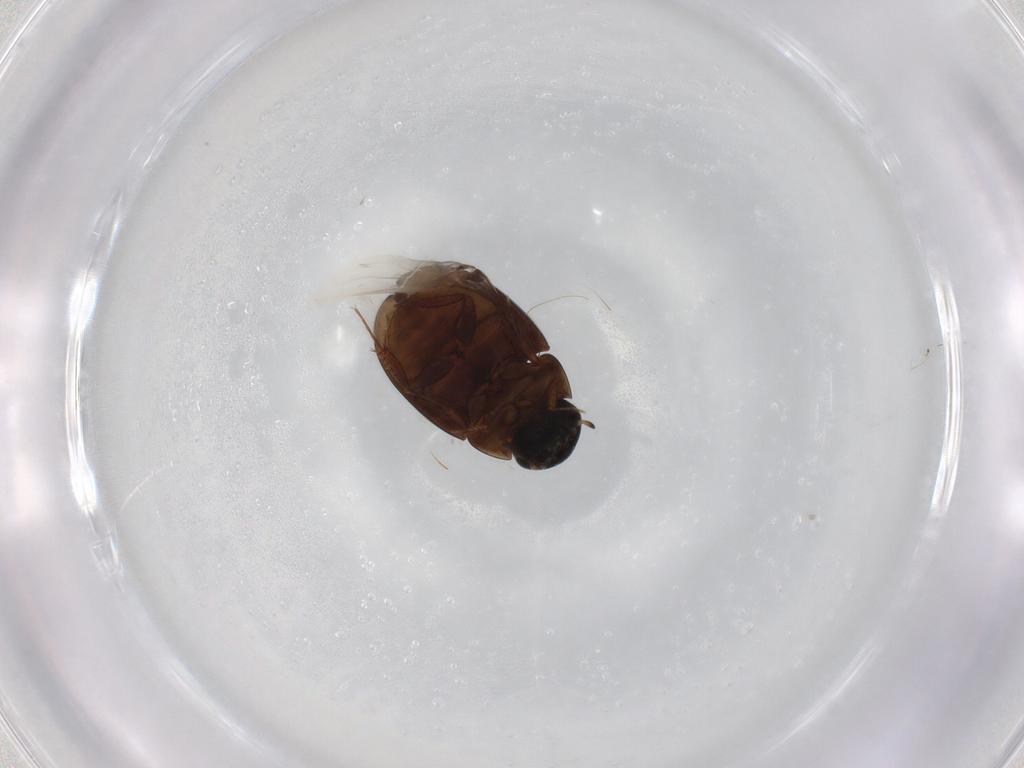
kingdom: Animalia
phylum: Arthropoda
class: Insecta
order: Coleoptera
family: Hydrophilidae
